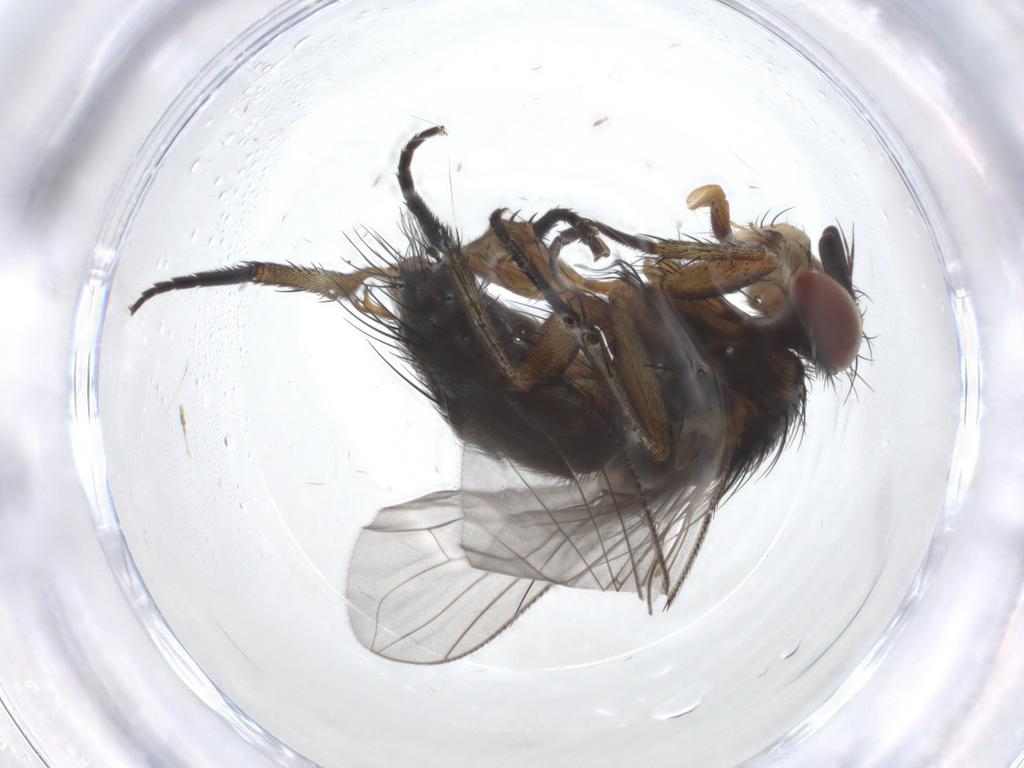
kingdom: Animalia
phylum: Arthropoda
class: Insecta
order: Diptera
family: Tachinidae
